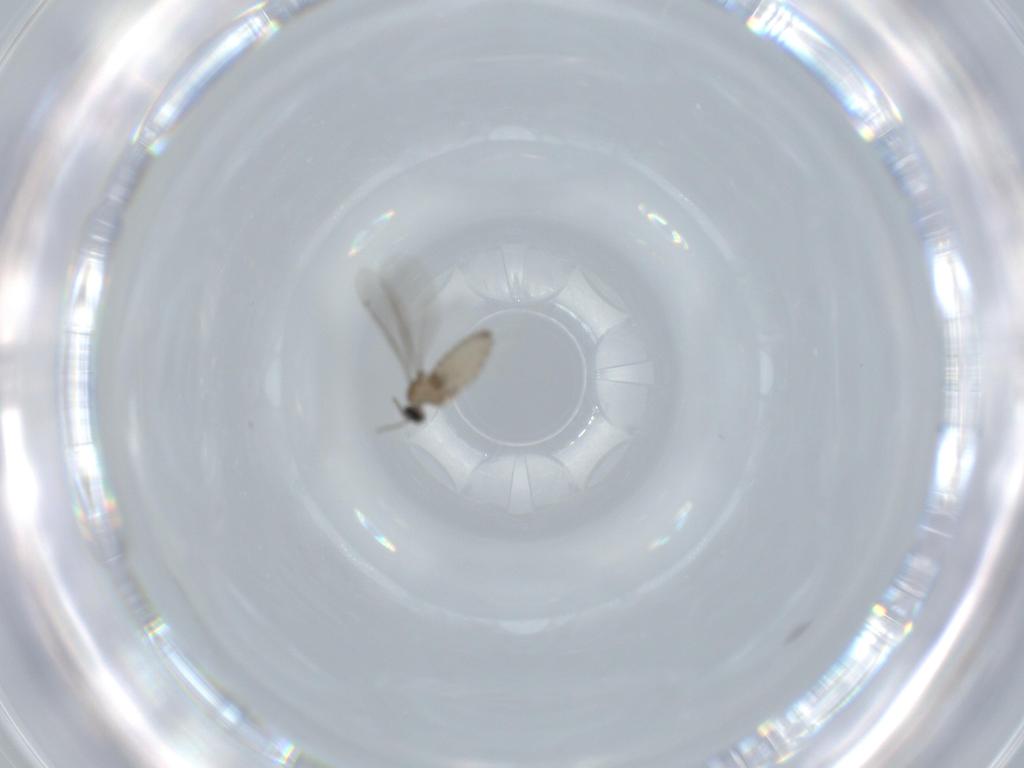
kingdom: Animalia
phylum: Arthropoda
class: Insecta
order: Diptera
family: Cecidomyiidae
